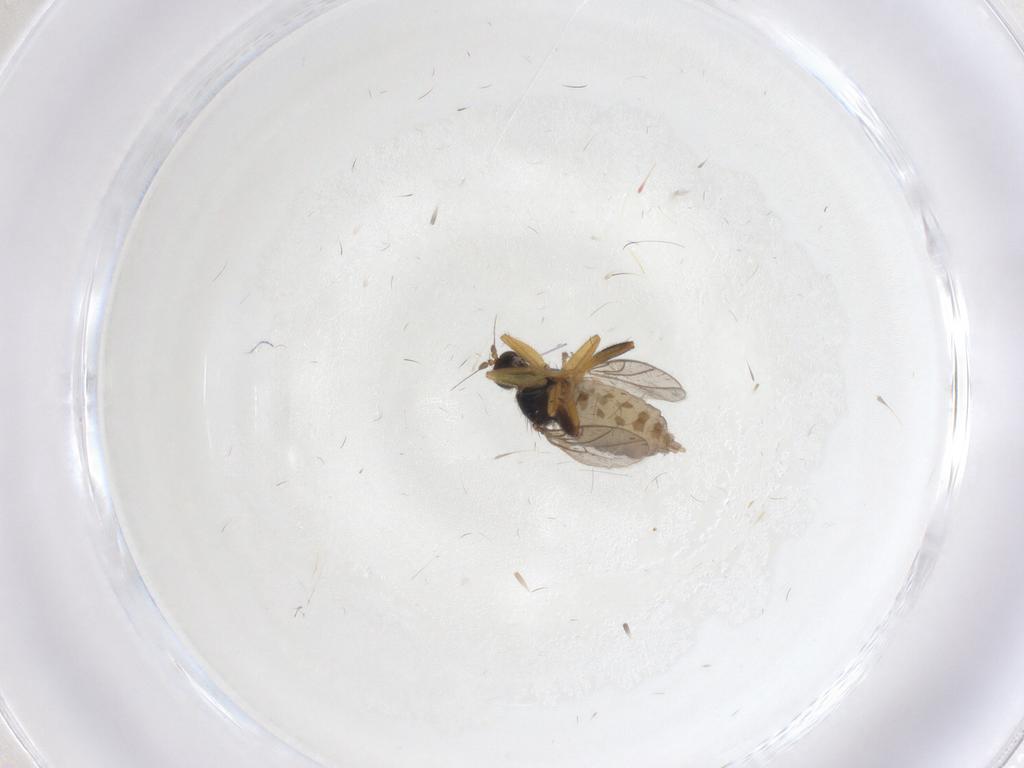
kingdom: Animalia
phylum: Arthropoda
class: Insecta
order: Diptera
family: Hybotidae
